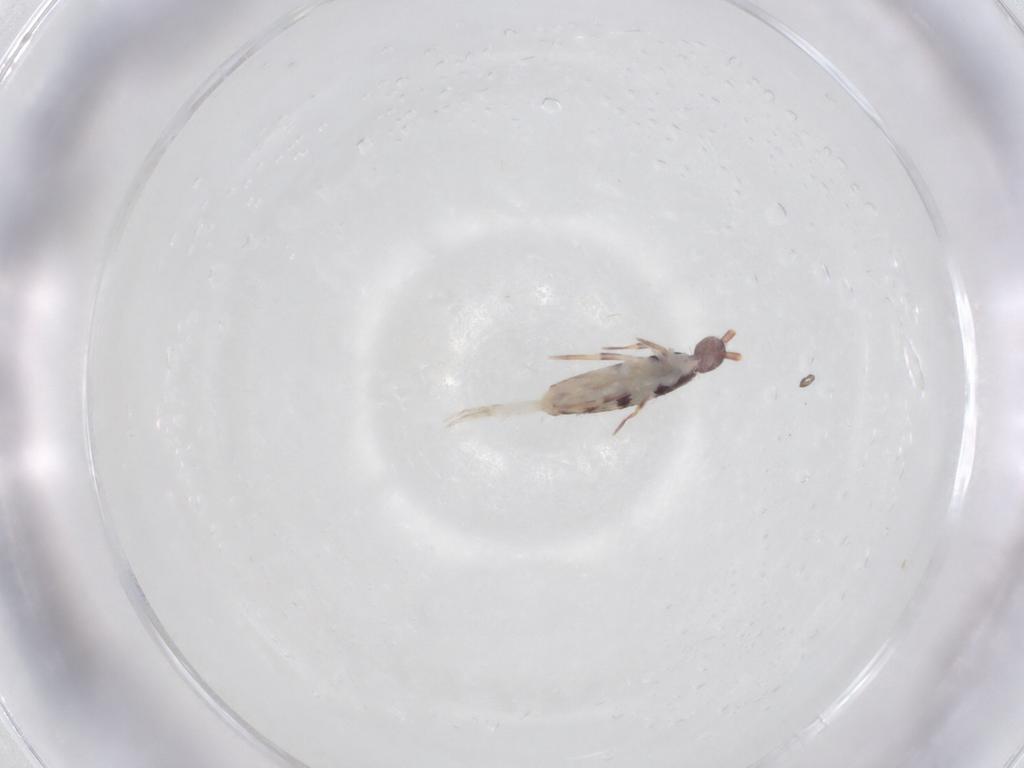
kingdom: Animalia
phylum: Arthropoda
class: Collembola
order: Entomobryomorpha
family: Entomobryidae
